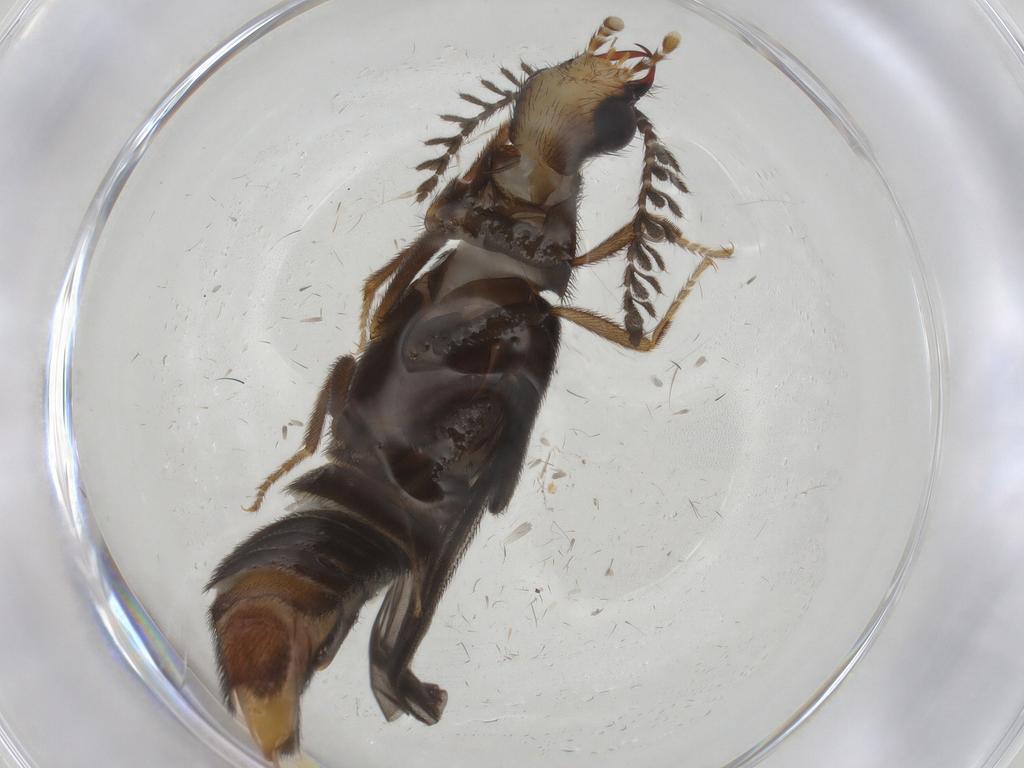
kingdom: Animalia
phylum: Arthropoda
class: Insecta
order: Coleoptera
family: Phengodidae
